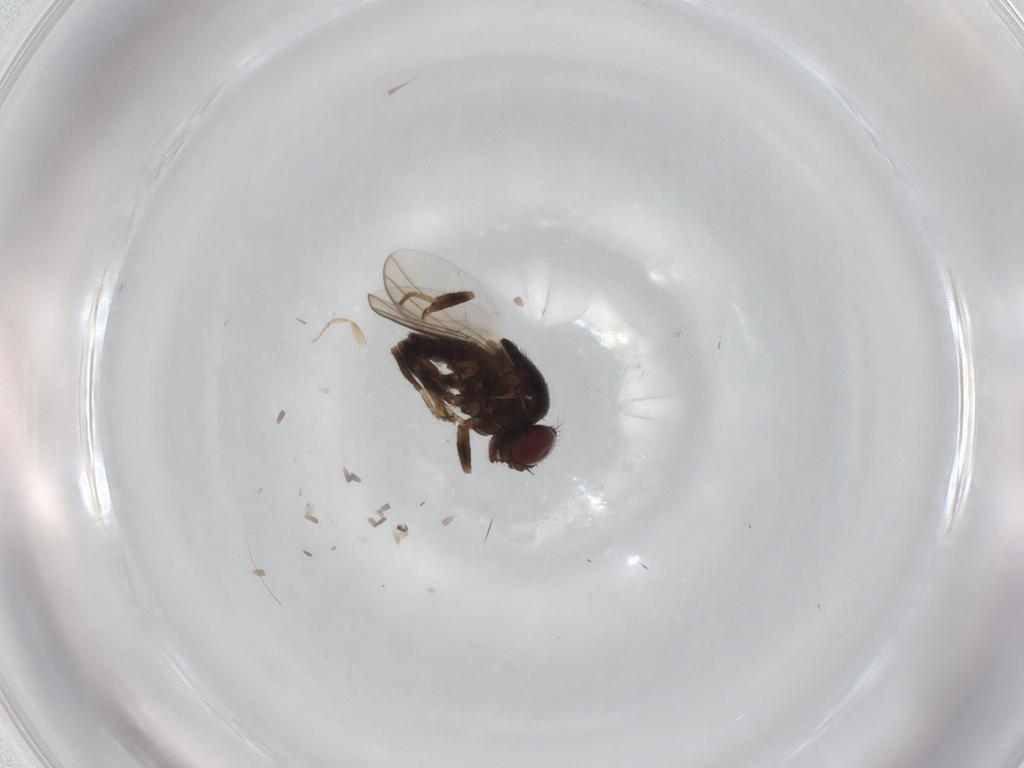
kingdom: Animalia
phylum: Arthropoda
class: Insecta
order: Diptera
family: Chloropidae
